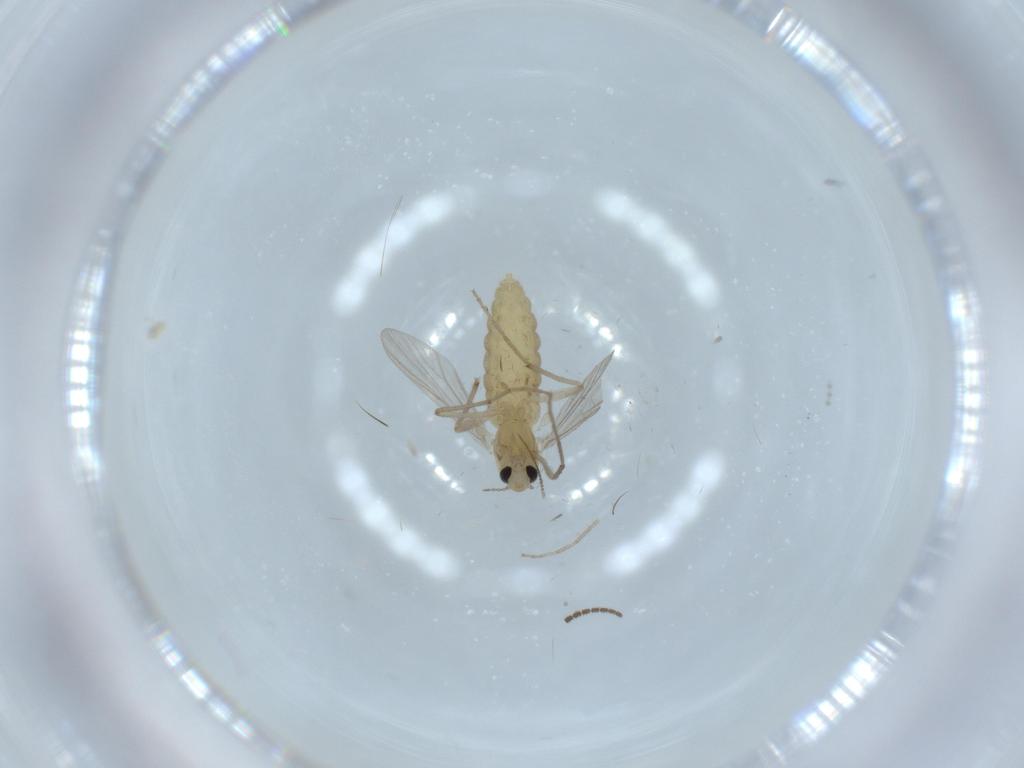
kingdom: Animalia
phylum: Arthropoda
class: Insecta
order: Diptera
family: Chironomidae
